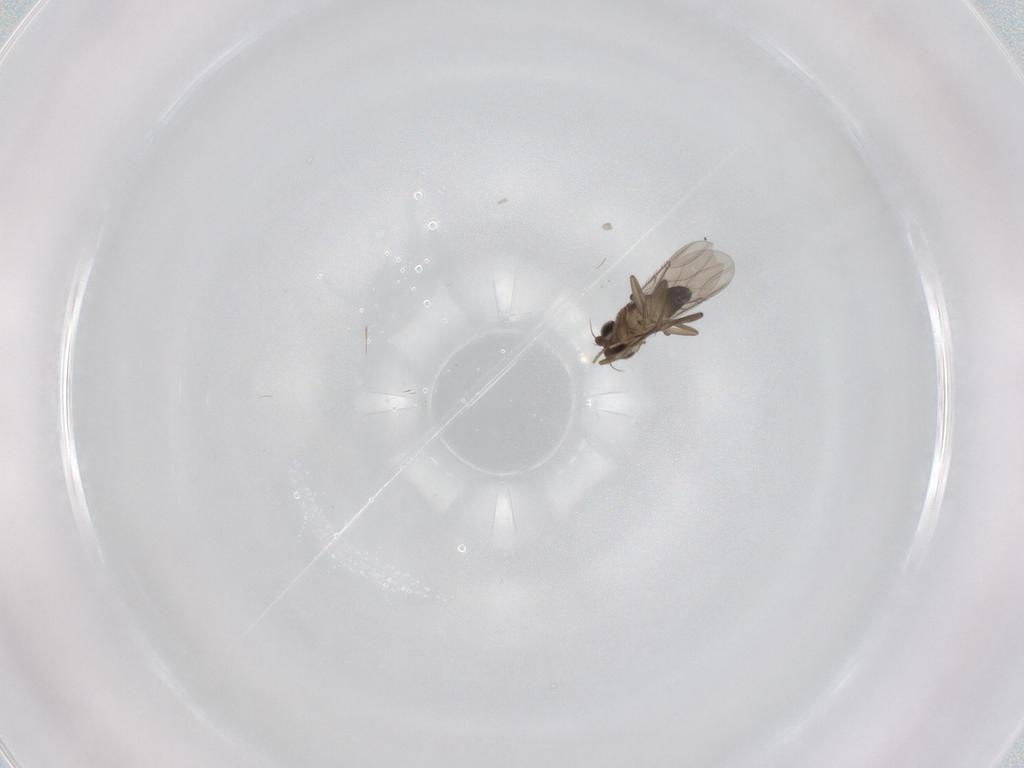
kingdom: Animalia
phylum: Arthropoda
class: Insecta
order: Diptera
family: Phoridae
